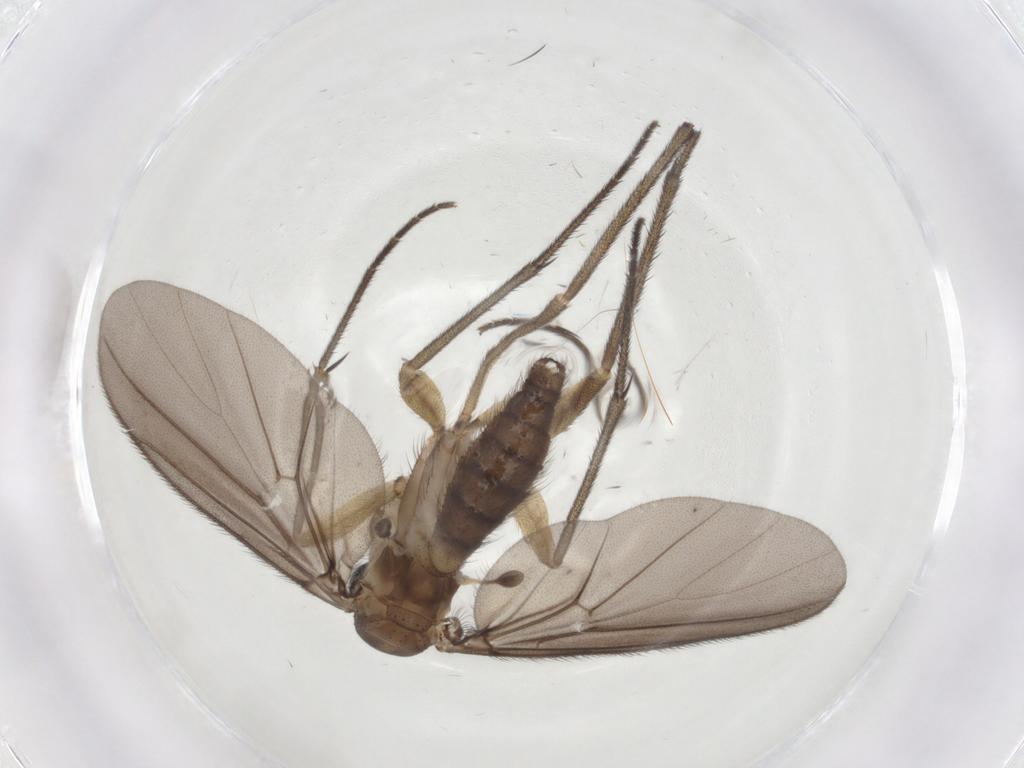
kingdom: Animalia
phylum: Arthropoda
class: Insecta
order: Diptera
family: Diadocidiidae
